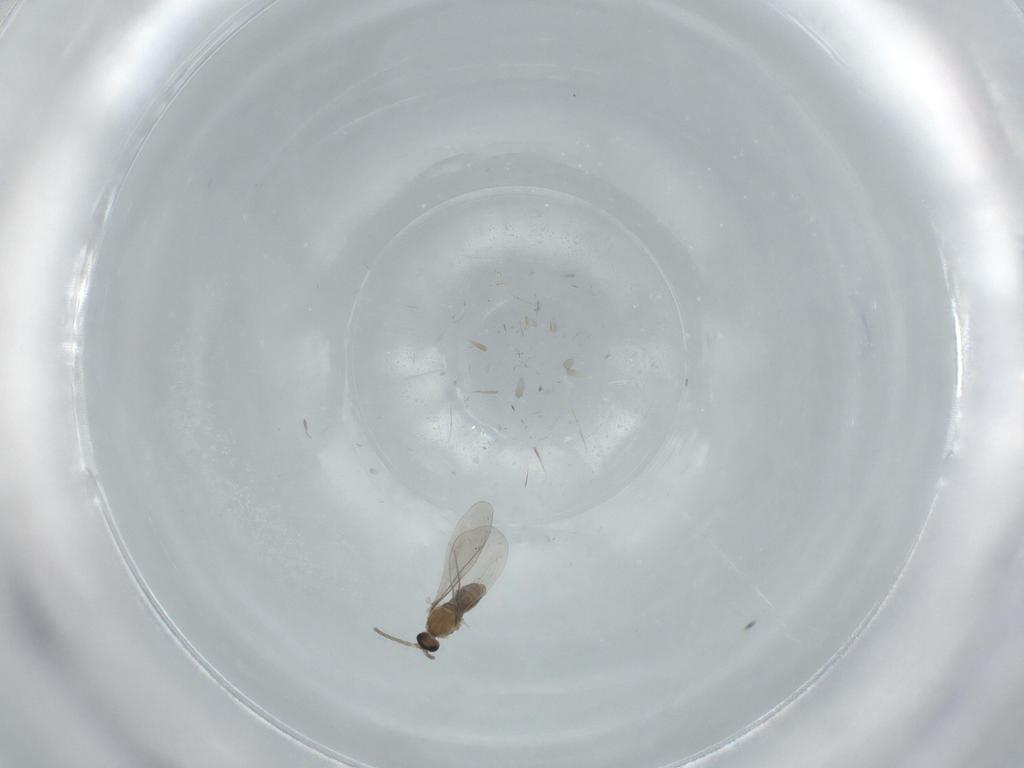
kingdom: Animalia
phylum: Arthropoda
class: Insecta
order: Diptera
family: Cecidomyiidae
